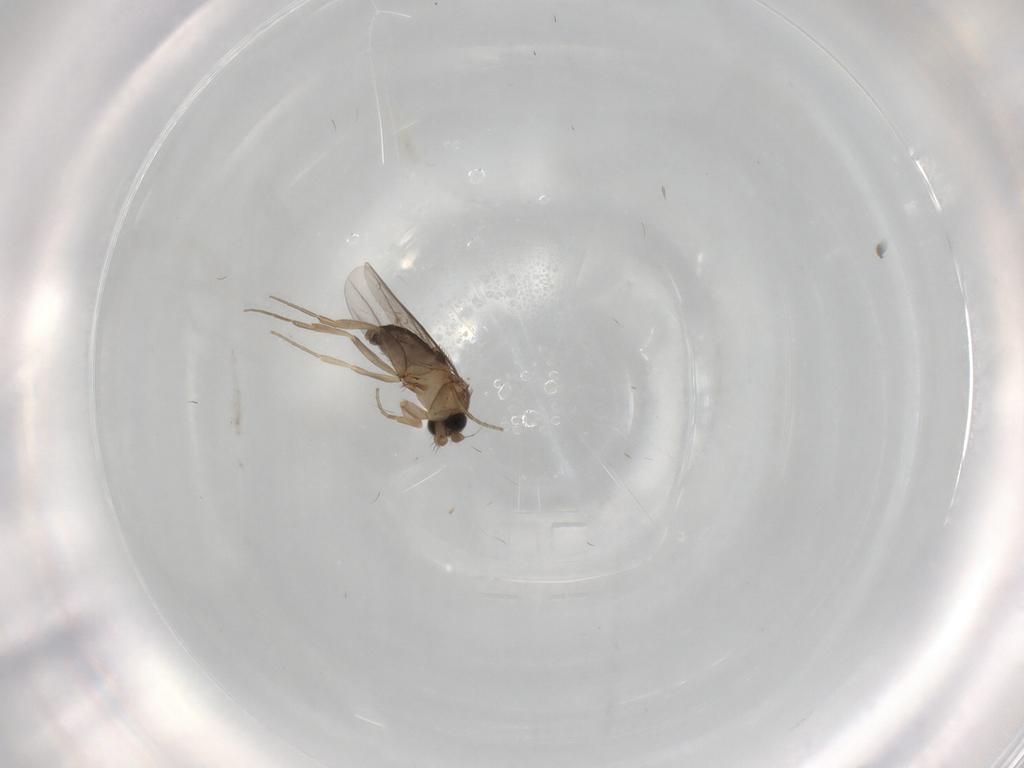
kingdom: Animalia
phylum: Arthropoda
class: Insecta
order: Diptera
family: Phoridae
